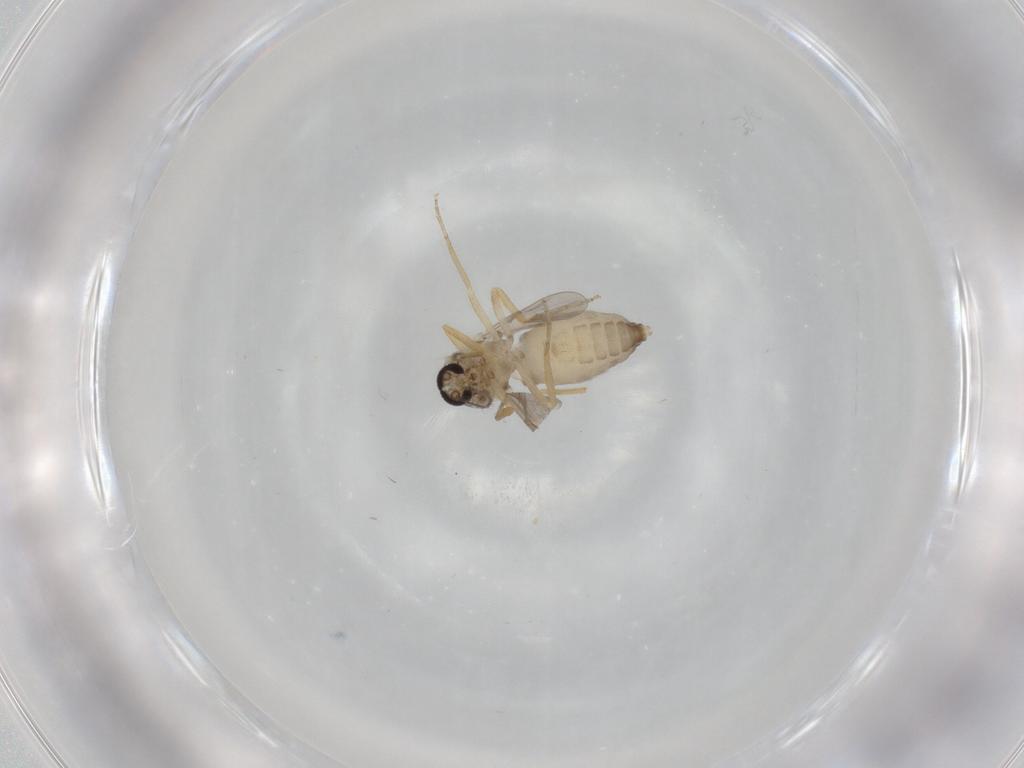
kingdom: Animalia
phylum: Arthropoda
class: Insecta
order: Diptera
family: Ceratopogonidae
